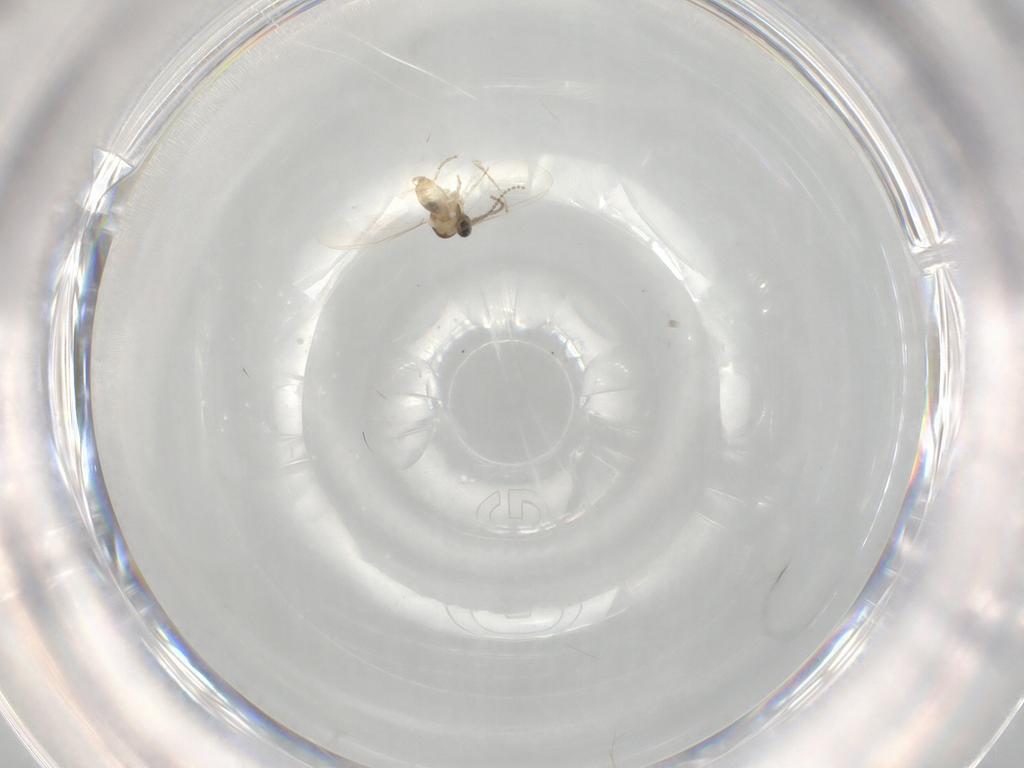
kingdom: Animalia
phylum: Arthropoda
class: Insecta
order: Diptera
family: Cecidomyiidae
